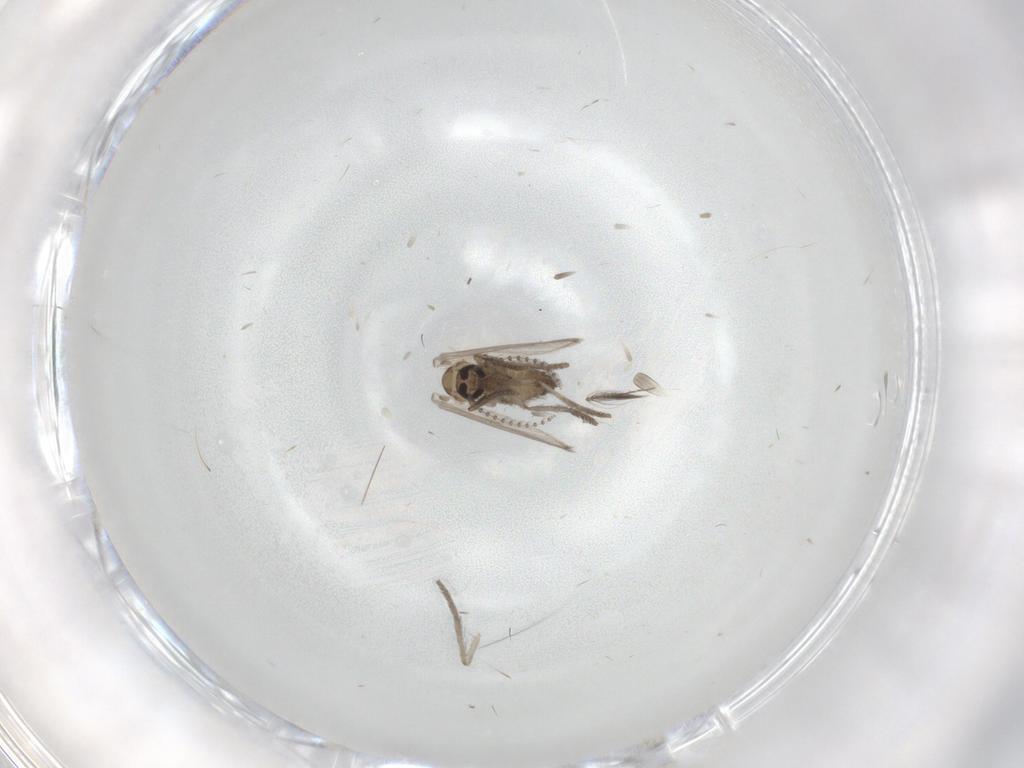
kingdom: Animalia
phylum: Arthropoda
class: Insecta
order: Diptera
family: Psychodidae
